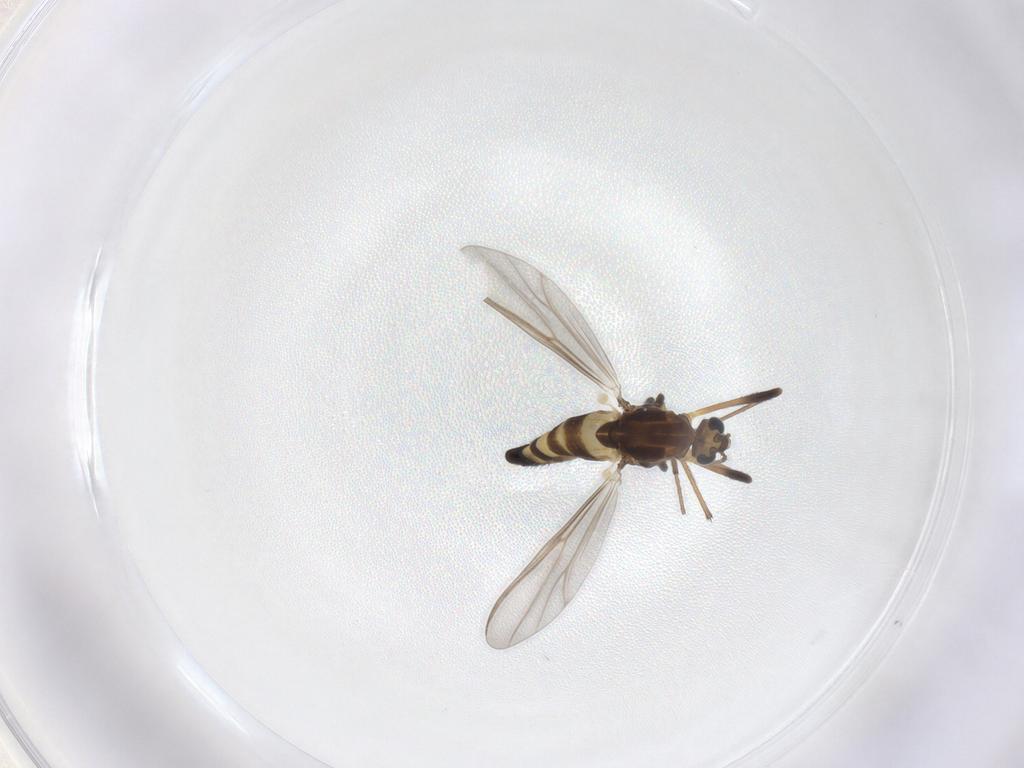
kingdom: Animalia
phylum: Arthropoda
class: Insecta
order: Diptera
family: Chironomidae
